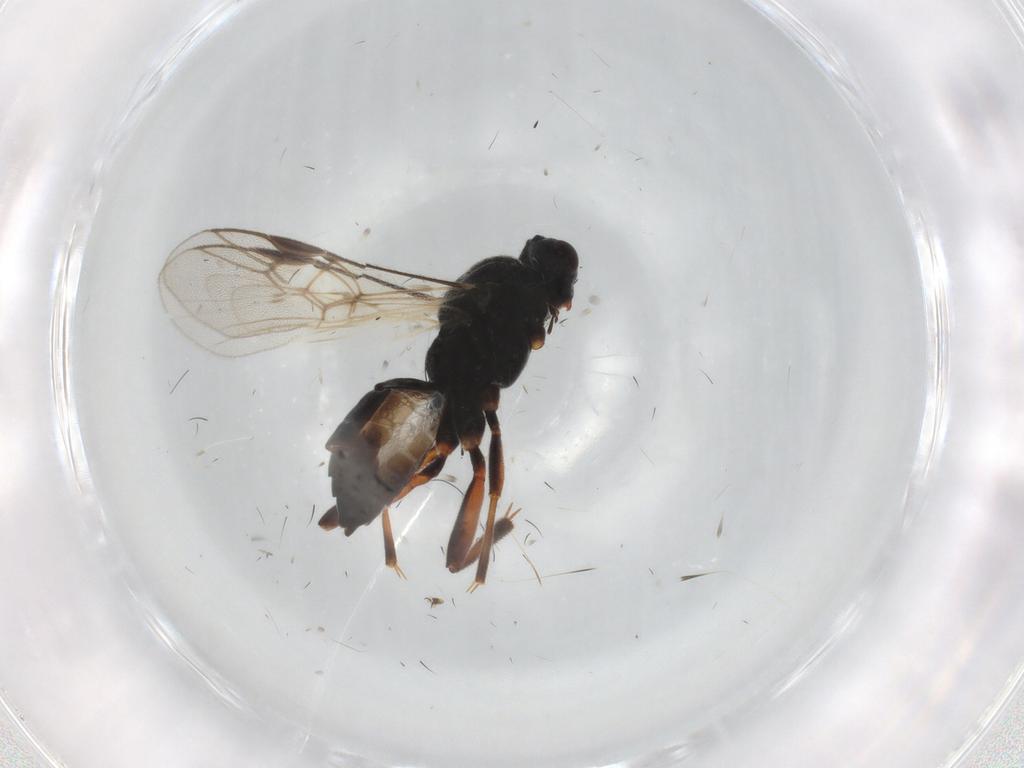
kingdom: Animalia
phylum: Arthropoda
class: Insecta
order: Hymenoptera
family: Braconidae
